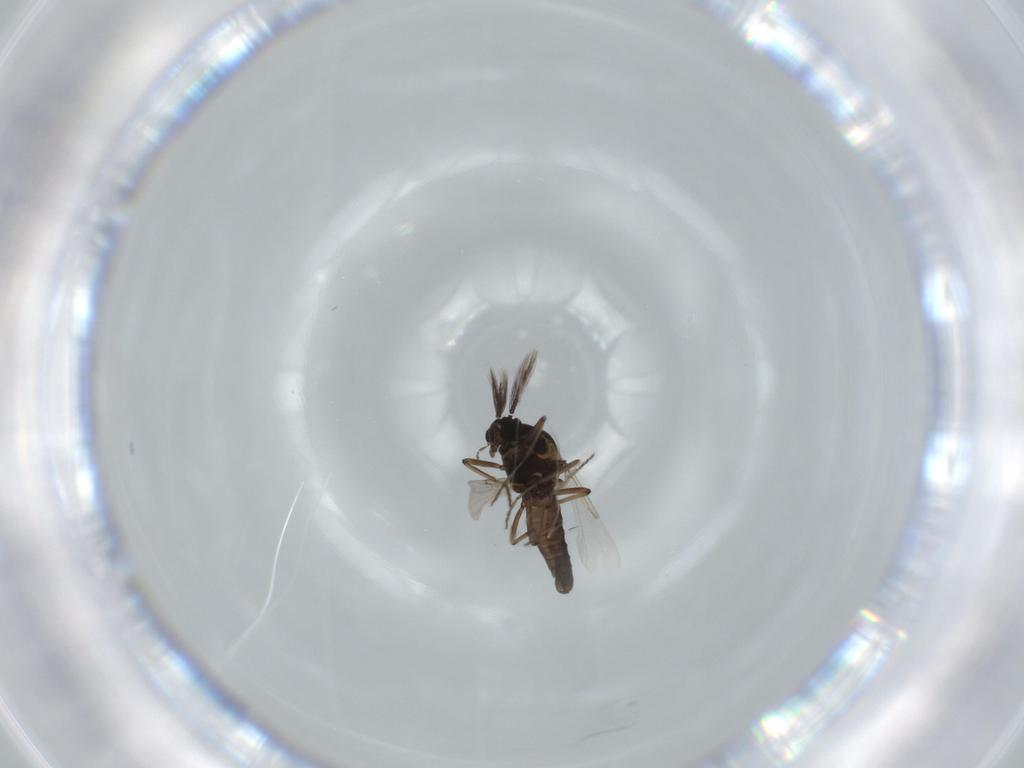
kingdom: Animalia
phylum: Arthropoda
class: Insecta
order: Diptera
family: Ceratopogonidae
